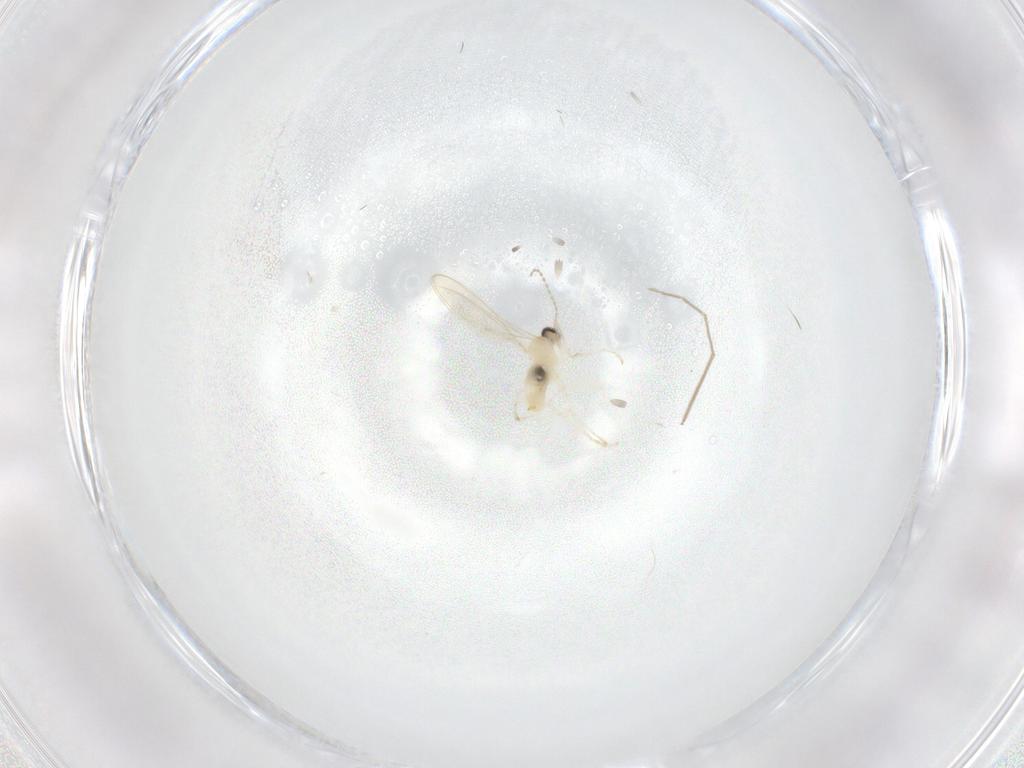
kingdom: Animalia
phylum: Arthropoda
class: Insecta
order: Diptera
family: Cecidomyiidae
